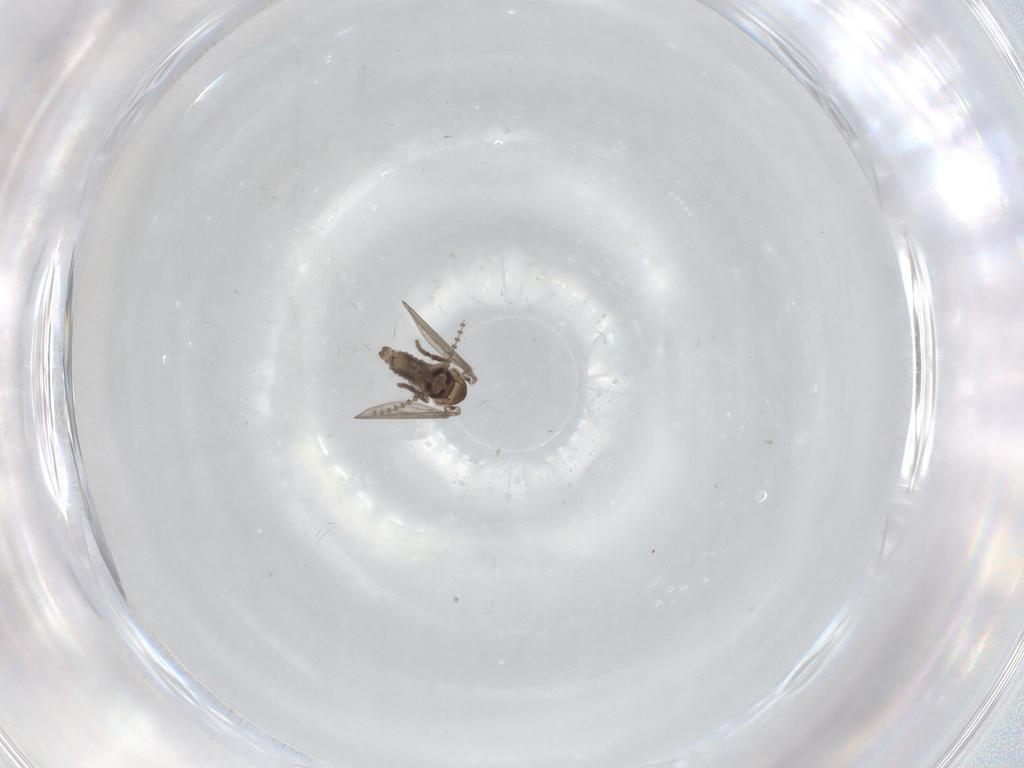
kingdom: Animalia
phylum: Arthropoda
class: Insecta
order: Diptera
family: Psychodidae
